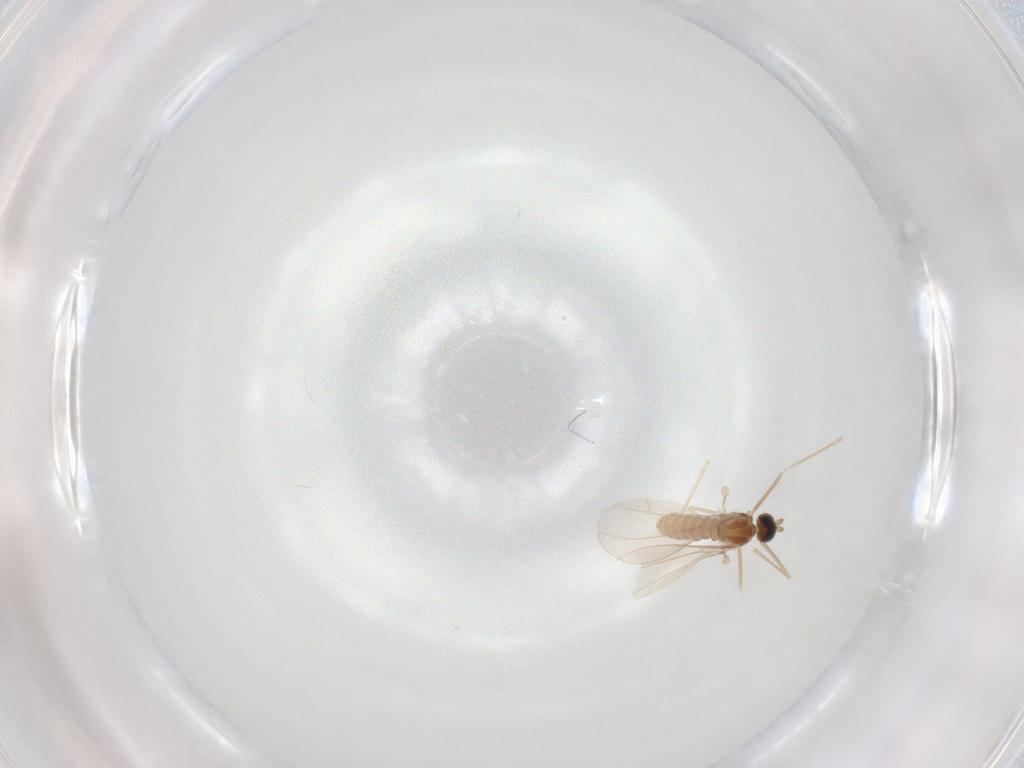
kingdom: Animalia
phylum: Arthropoda
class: Insecta
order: Diptera
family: Cecidomyiidae
